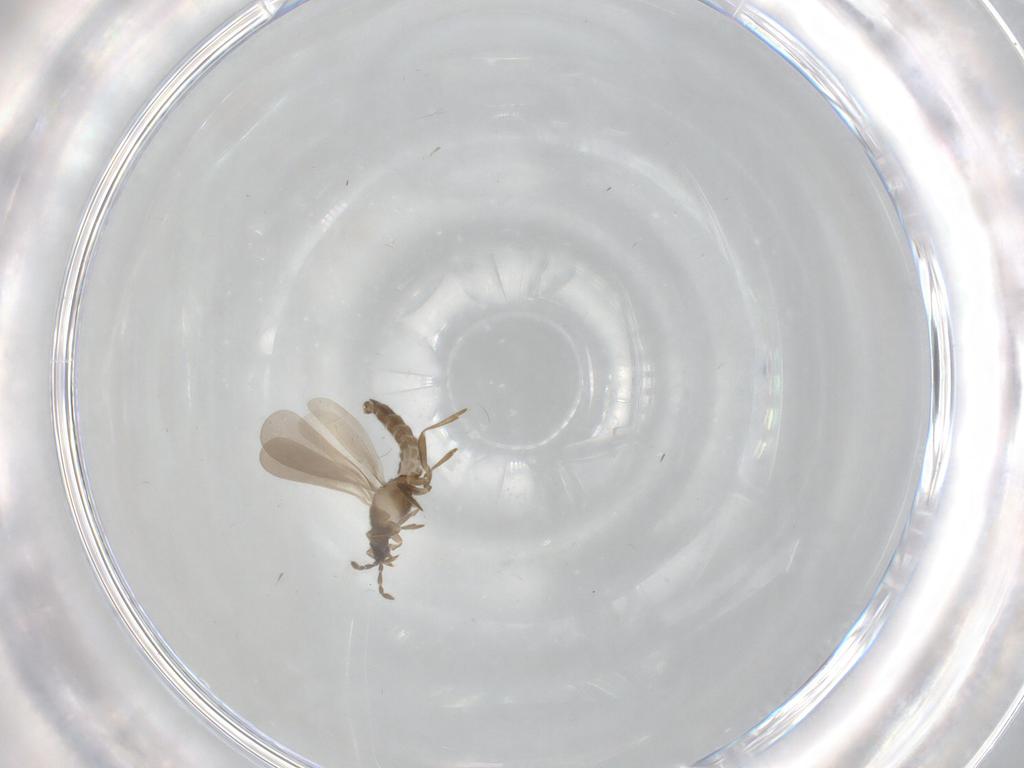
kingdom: Animalia
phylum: Arthropoda
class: Insecta
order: Hemiptera
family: Enicocephalidae
